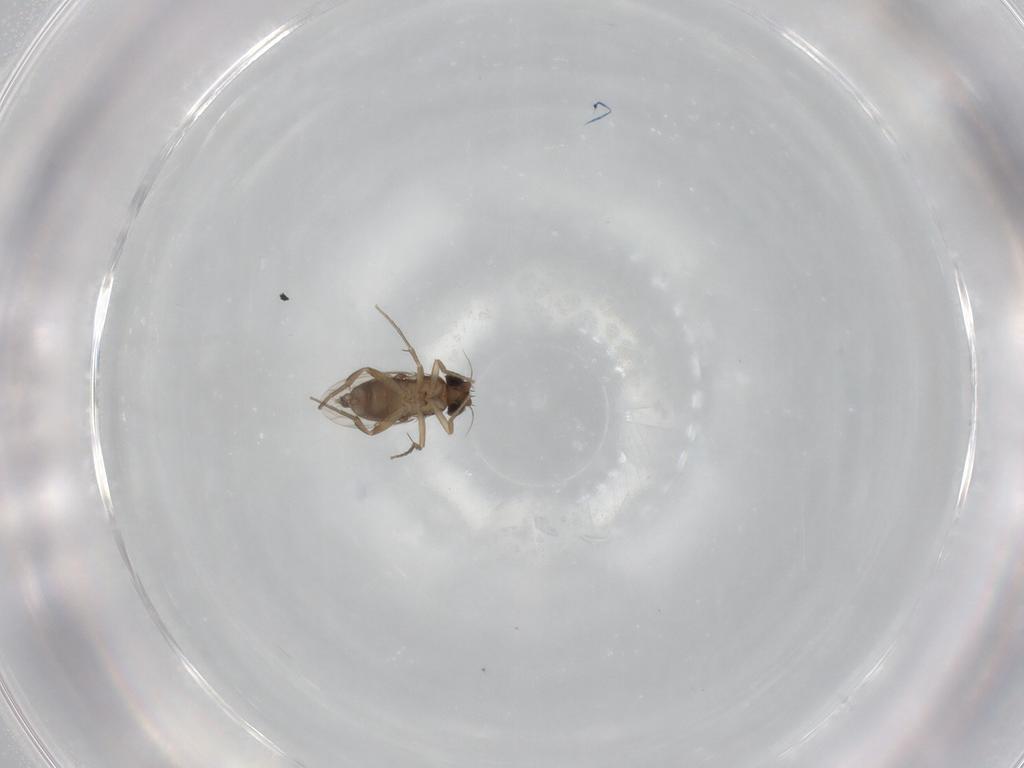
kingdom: Animalia
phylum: Arthropoda
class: Insecta
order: Diptera
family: Phoridae
